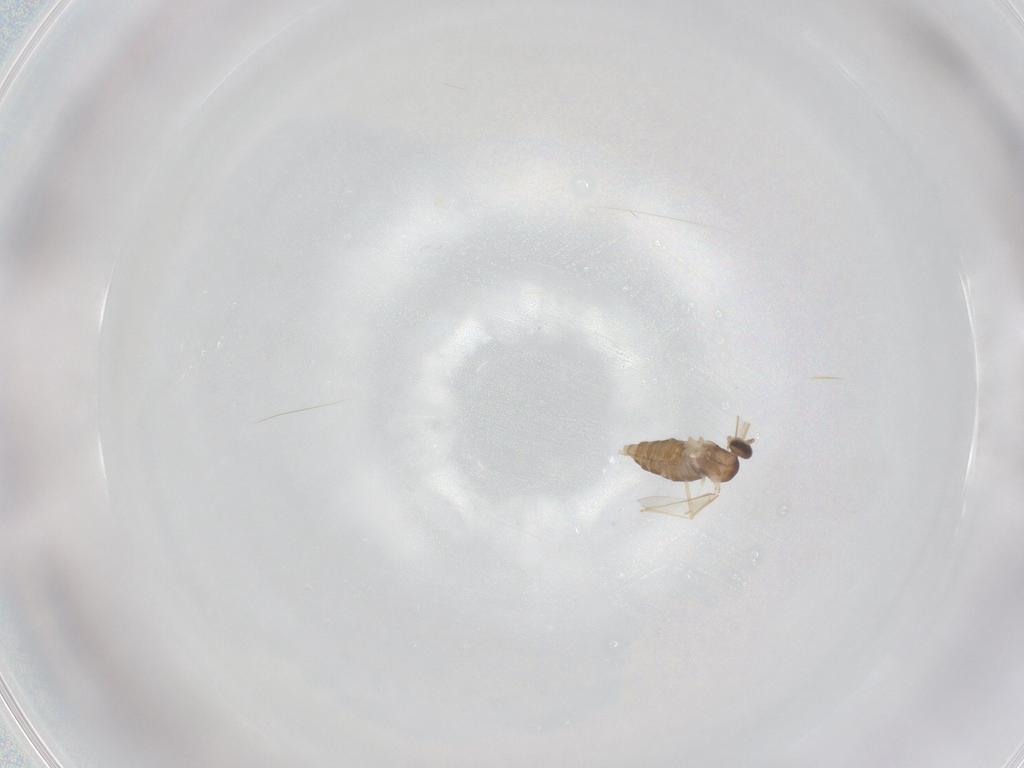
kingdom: Animalia
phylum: Arthropoda
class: Insecta
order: Diptera
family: Cecidomyiidae
